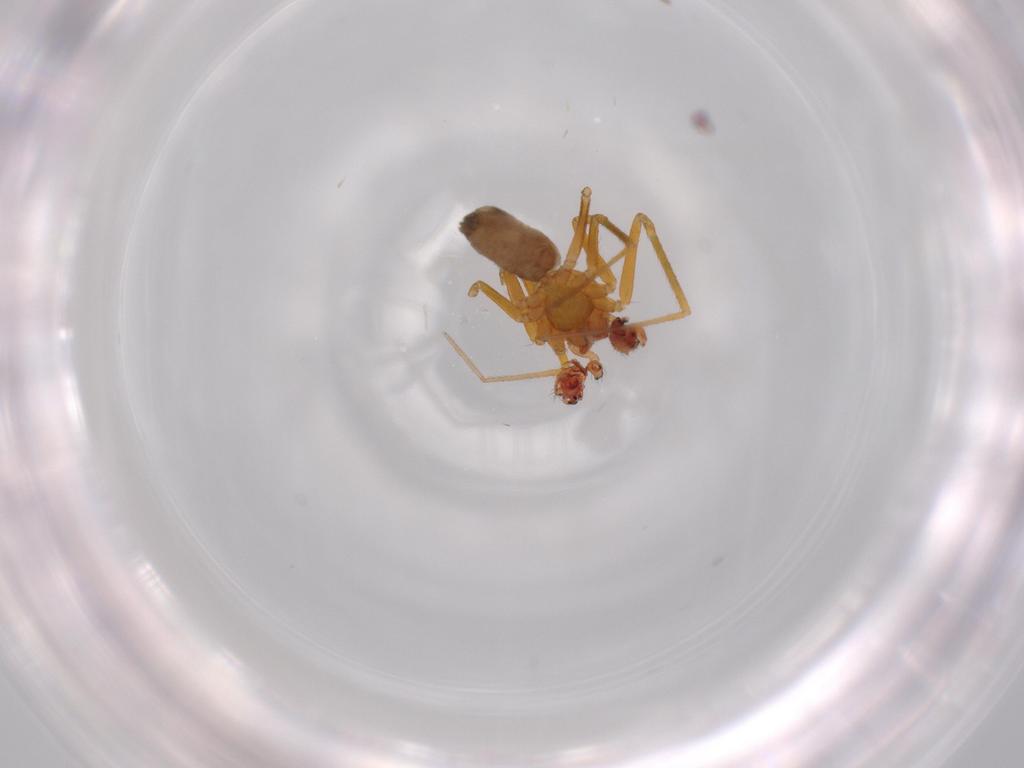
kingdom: Animalia
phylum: Arthropoda
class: Arachnida
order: Araneae
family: Linyphiidae
